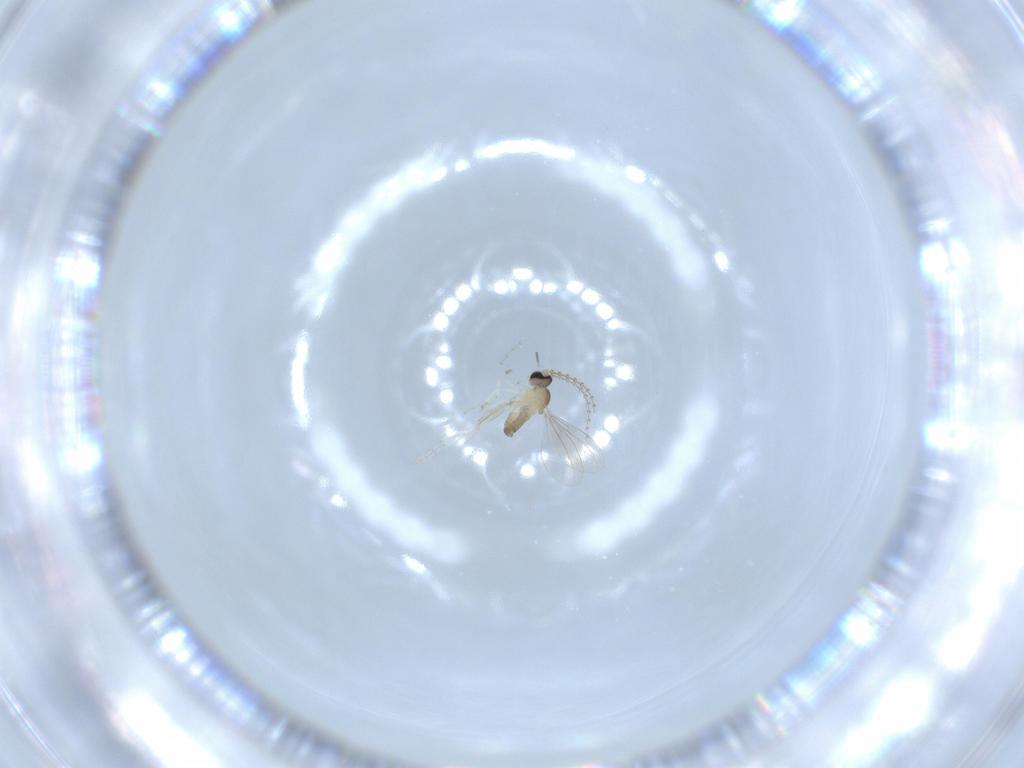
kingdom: Animalia
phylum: Arthropoda
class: Insecta
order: Diptera
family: Cecidomyiidae
